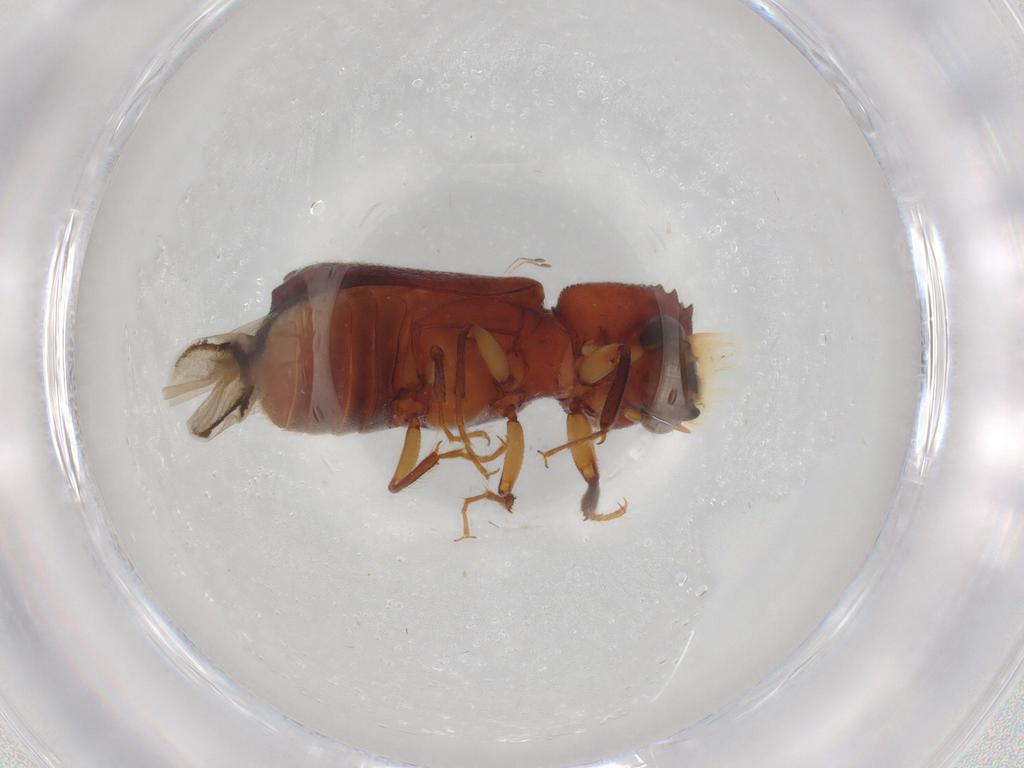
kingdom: Animalia
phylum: Arthropoda
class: Insecta
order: Coleoptera
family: Bostrichidae
